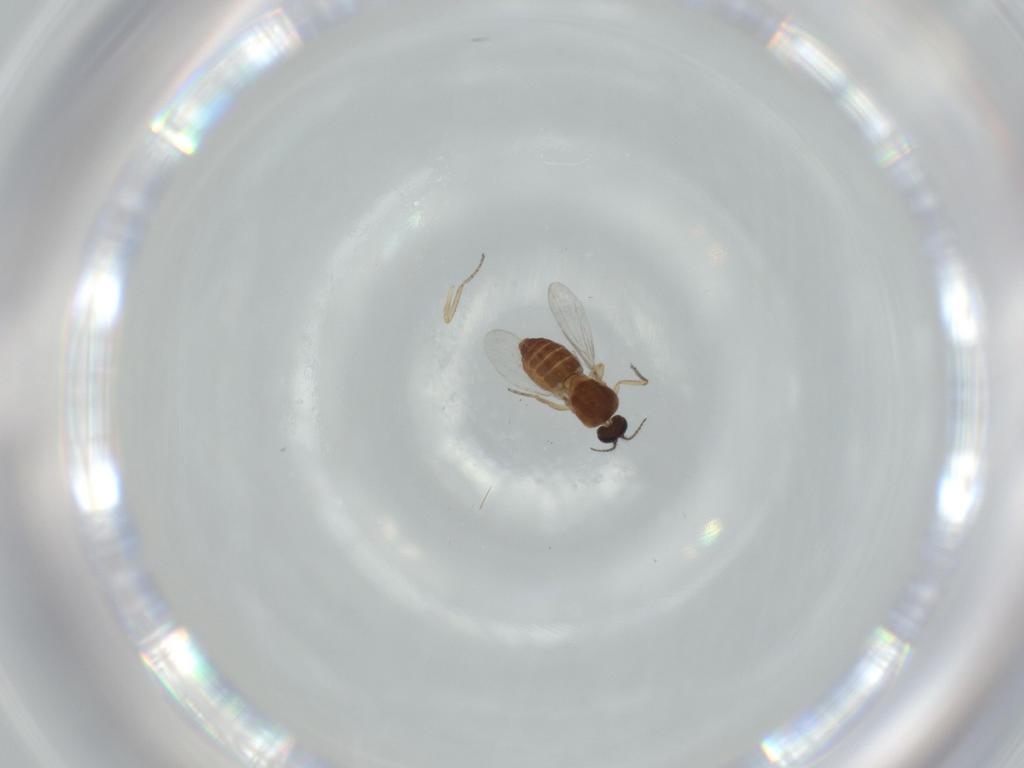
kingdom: Animalia
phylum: Arthropoda
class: Insecta
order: Diptera
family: Ceratopogonidae
